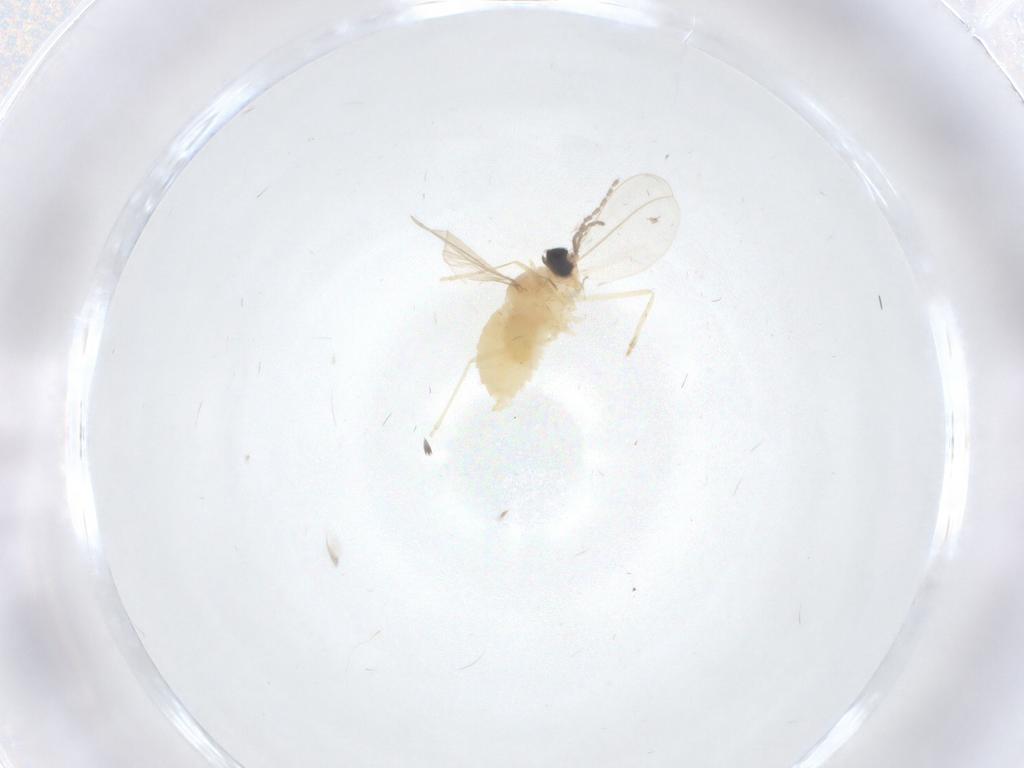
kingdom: Animalia
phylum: Arthropoda
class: Insecta
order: Diptera
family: Cecidomyiidae
